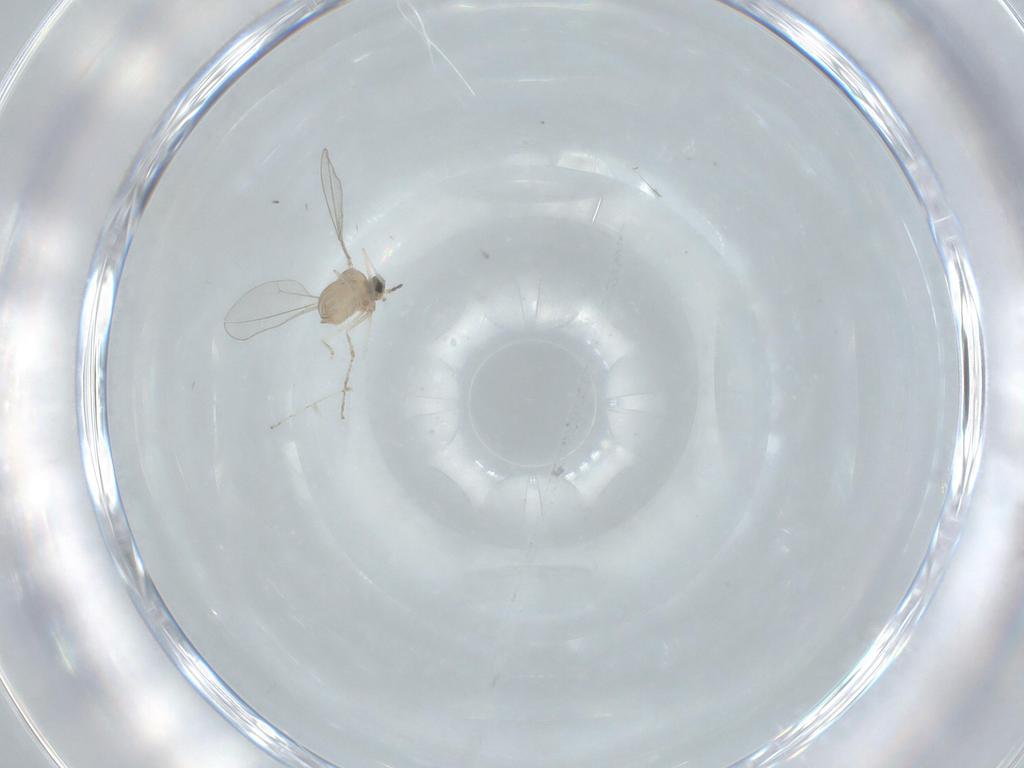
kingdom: Animalia
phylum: Arthropoda
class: Insecta
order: Diptera
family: Cecidomyiidae
